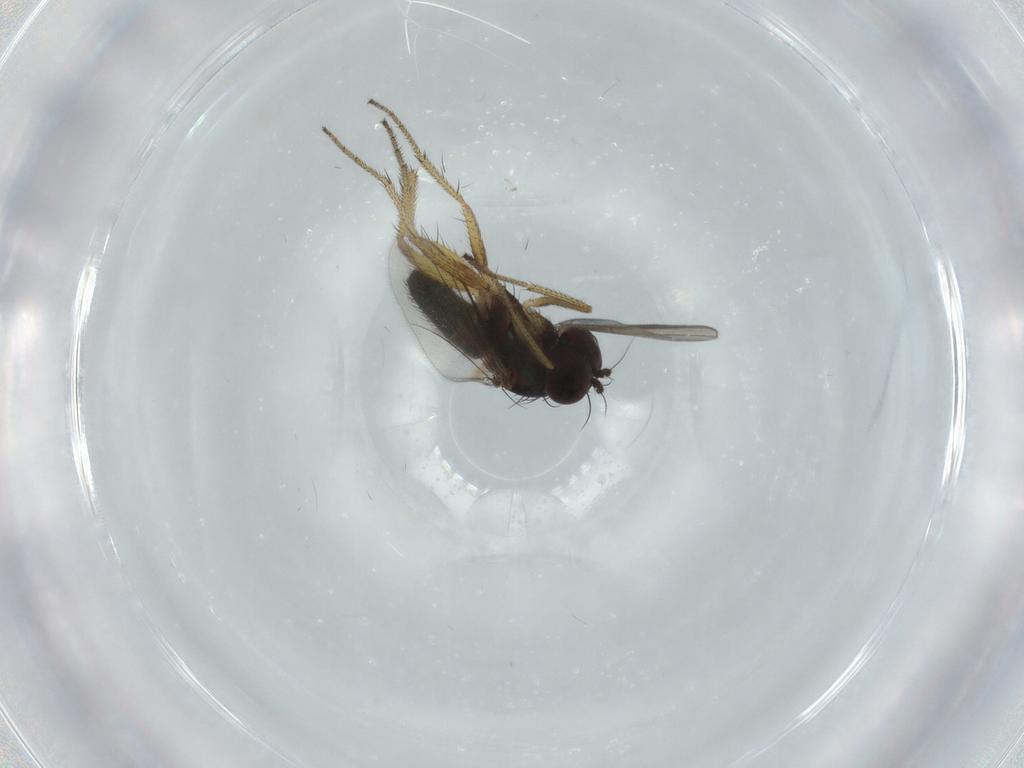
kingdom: Animalia
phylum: Arthropoda
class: Insecta
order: Diptera
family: Dolichopodidae
